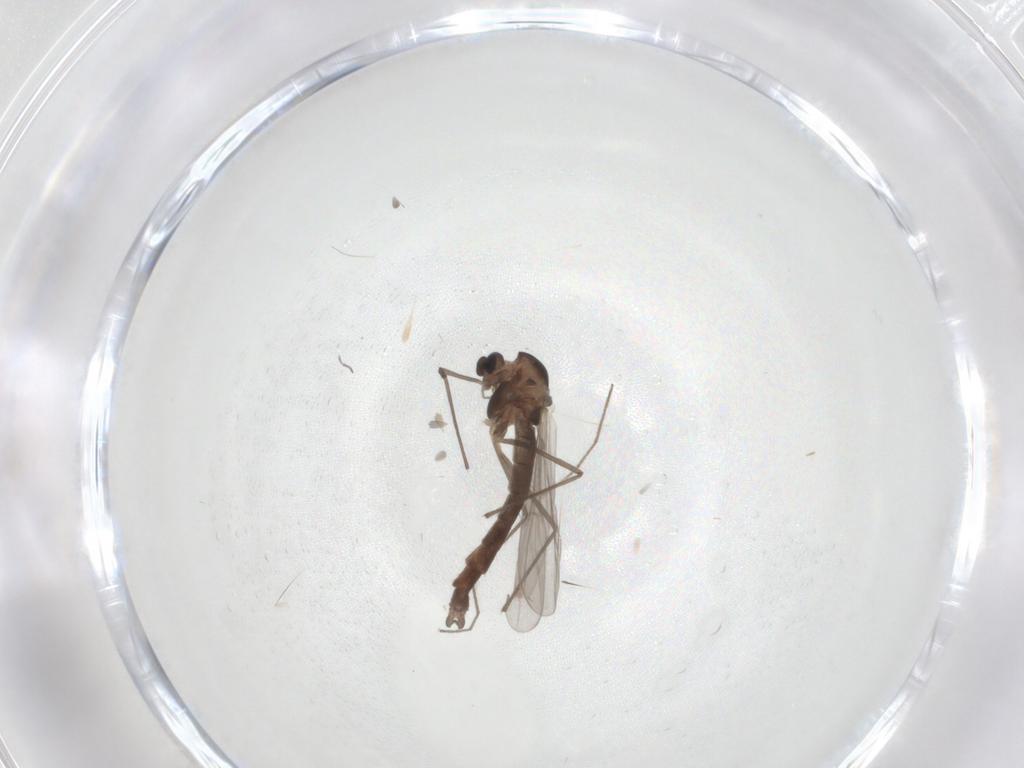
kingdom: Animalia
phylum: Arthropoda
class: Insecta
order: Diptera
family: Chironomidae
